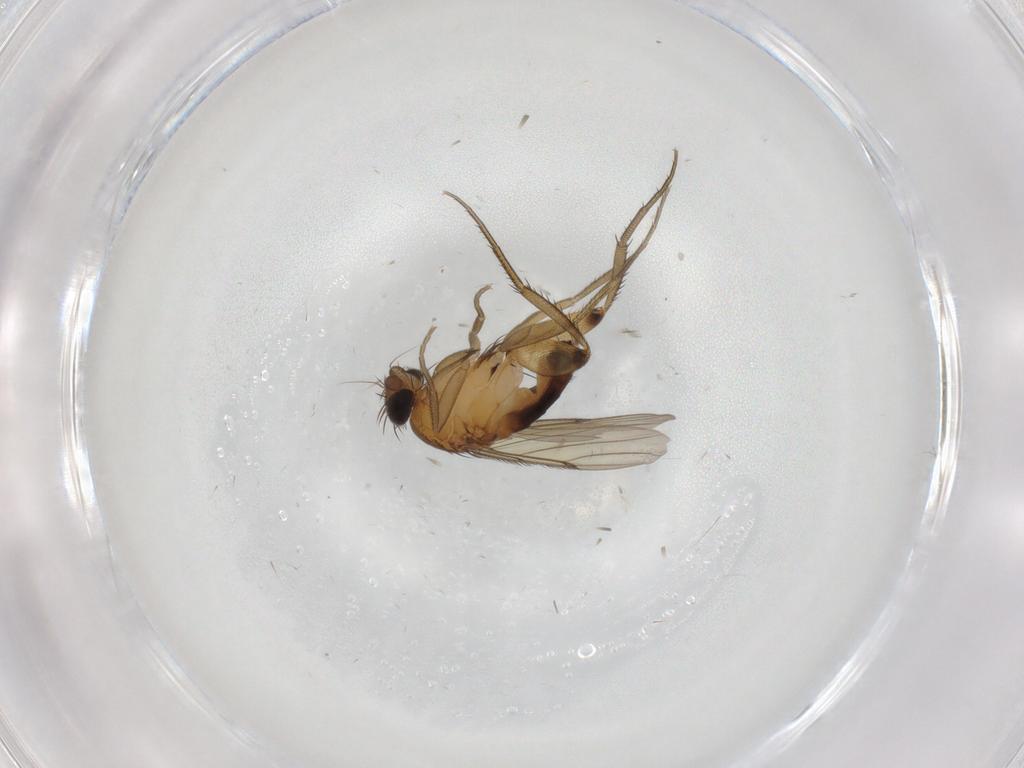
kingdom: Animalia
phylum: Arthropoda
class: Insecta
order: Diptera
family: Phoridae
